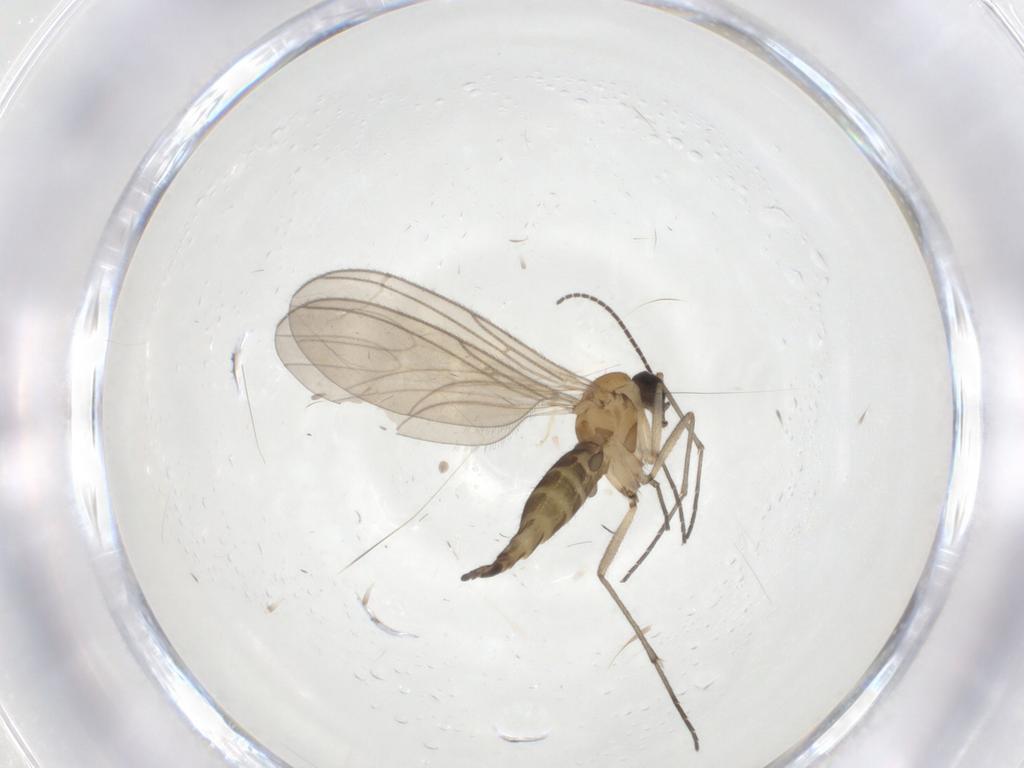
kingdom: Animalia
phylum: Arthropoda
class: Insecta
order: Diptera
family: Sciaridae
